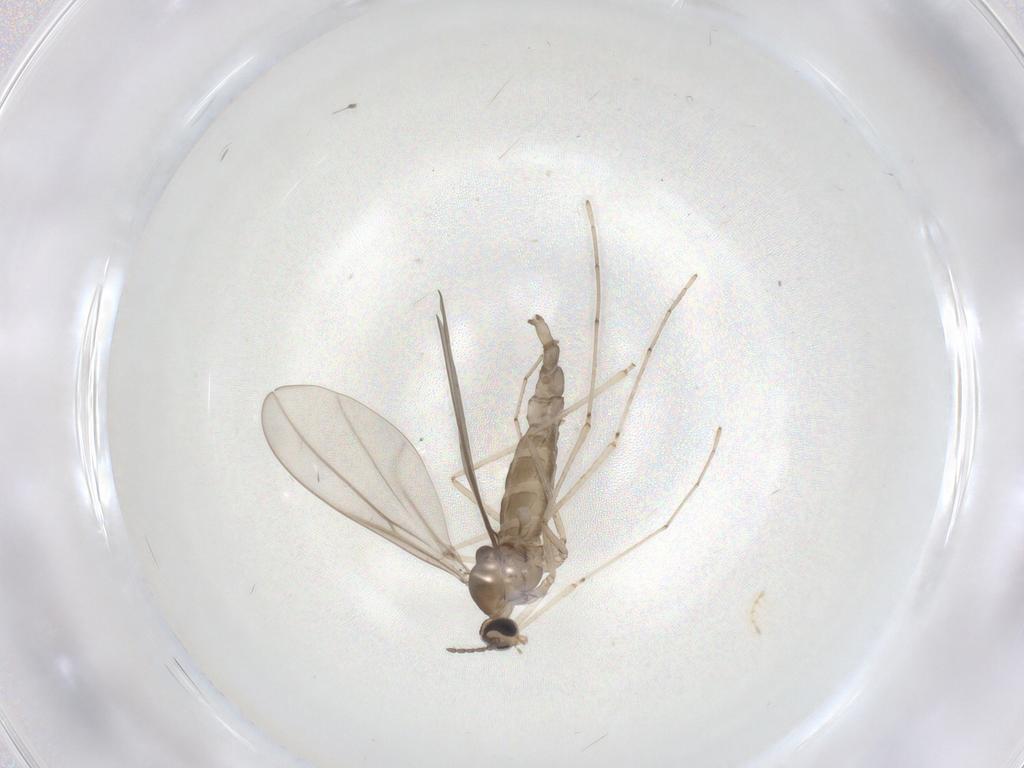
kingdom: Animalia
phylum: Arthropoda
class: Insecta
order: Diptera
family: Cecidomyiidae
